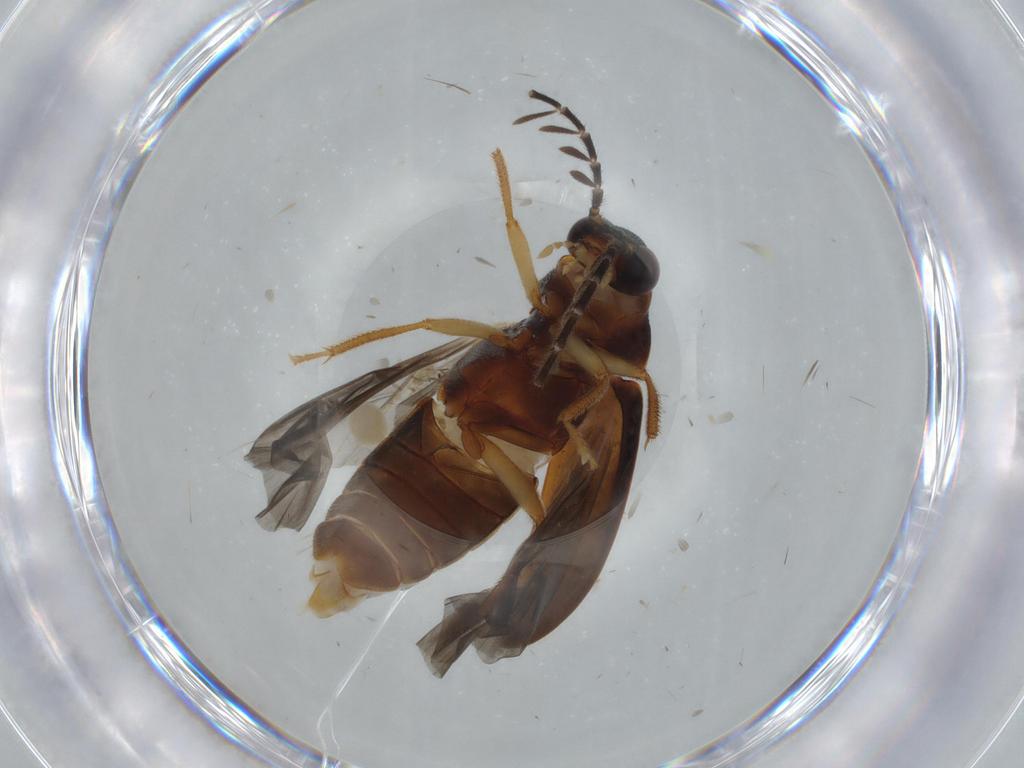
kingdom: Animalia
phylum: Arthropoda
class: Insecta
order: Coleoptera
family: Ptilodactylidae
